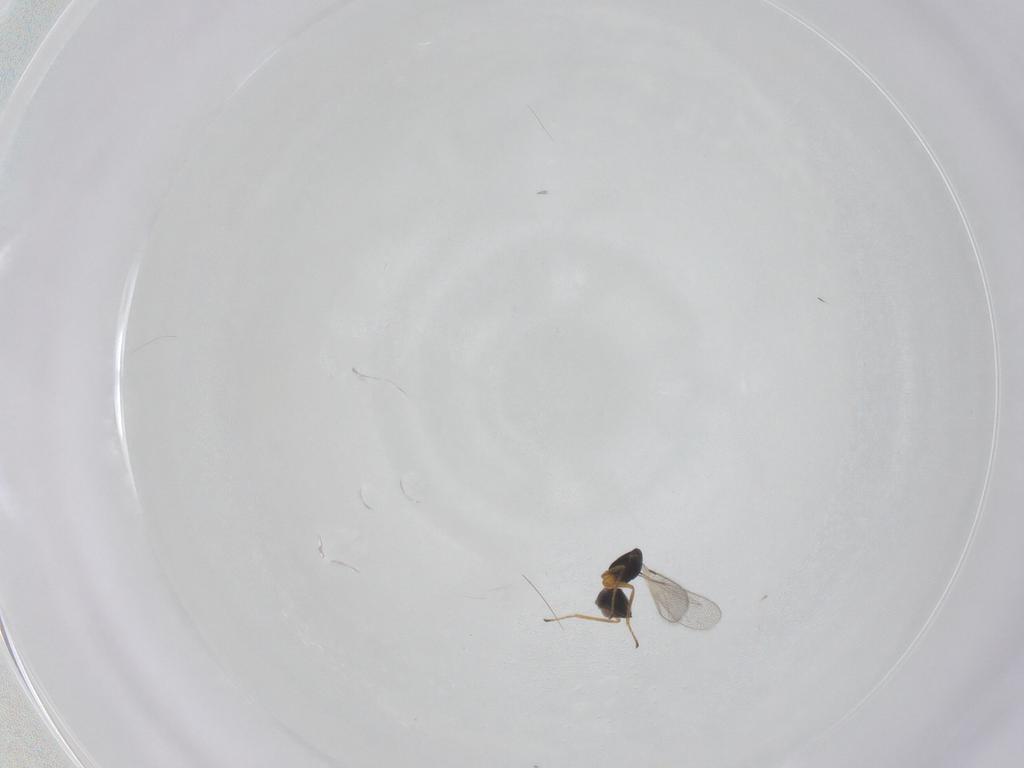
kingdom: Animalia
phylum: Arthropoda
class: Insecta
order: Hymenoptera
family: Mymaridae
